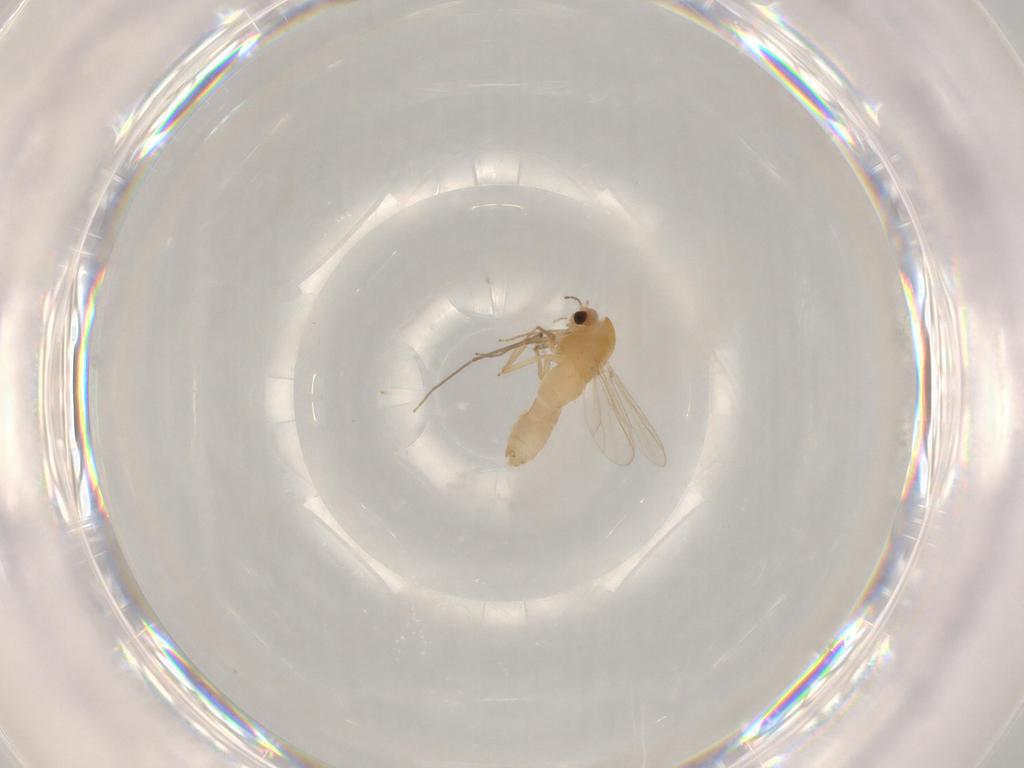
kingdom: Animalia
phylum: Arthropoda
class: Insecta
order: Diptera
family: Chironomidae
